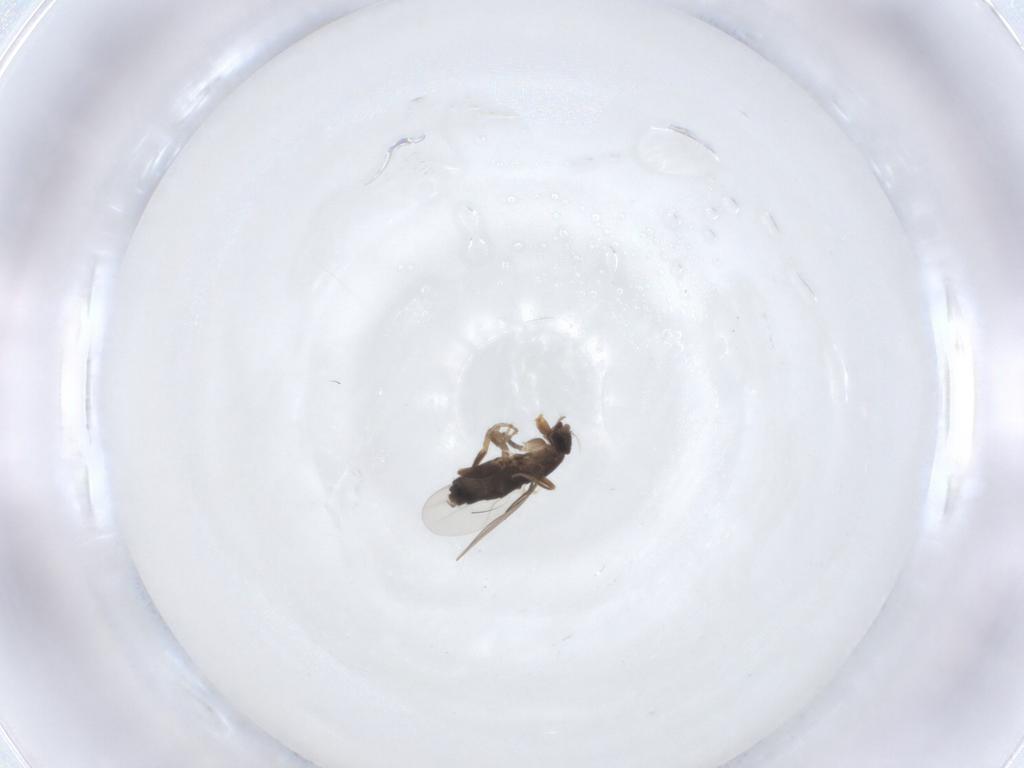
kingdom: Animalia
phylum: Arthropoda
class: Insecta
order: Diptera
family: Phoridae
